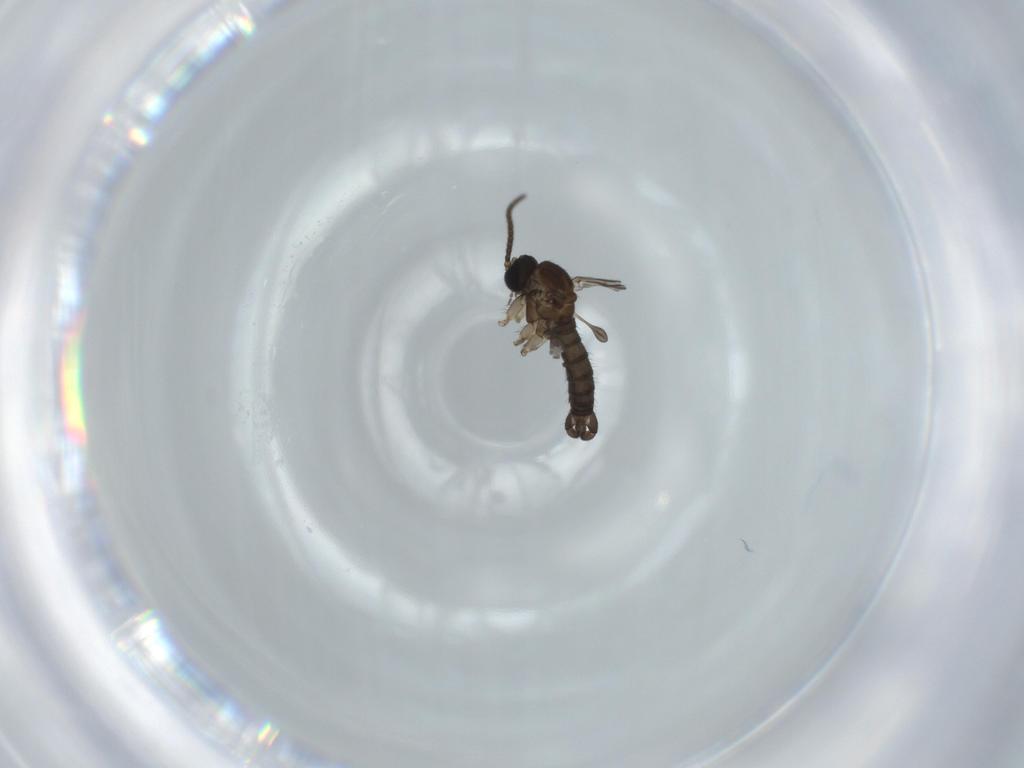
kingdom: Animalia
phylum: Arthropoda
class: Insecta
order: Diptera
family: Sciaridae
